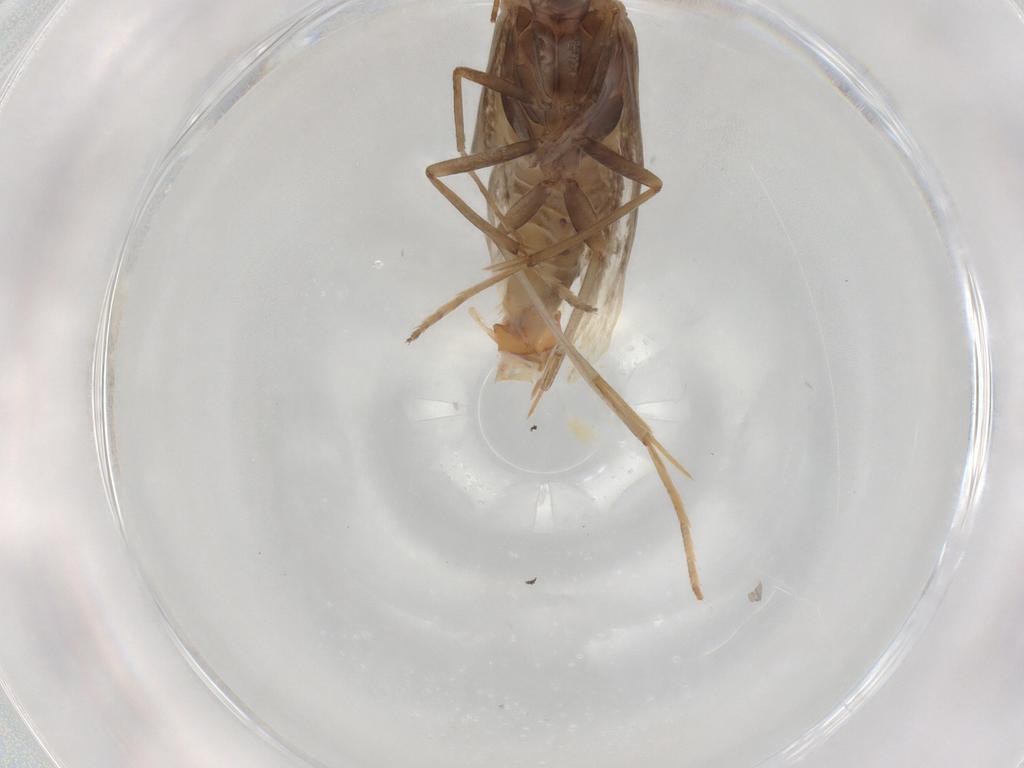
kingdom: Animalia
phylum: Arthropoda
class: Insecta
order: Lepidoptera
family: Coleophoridae
